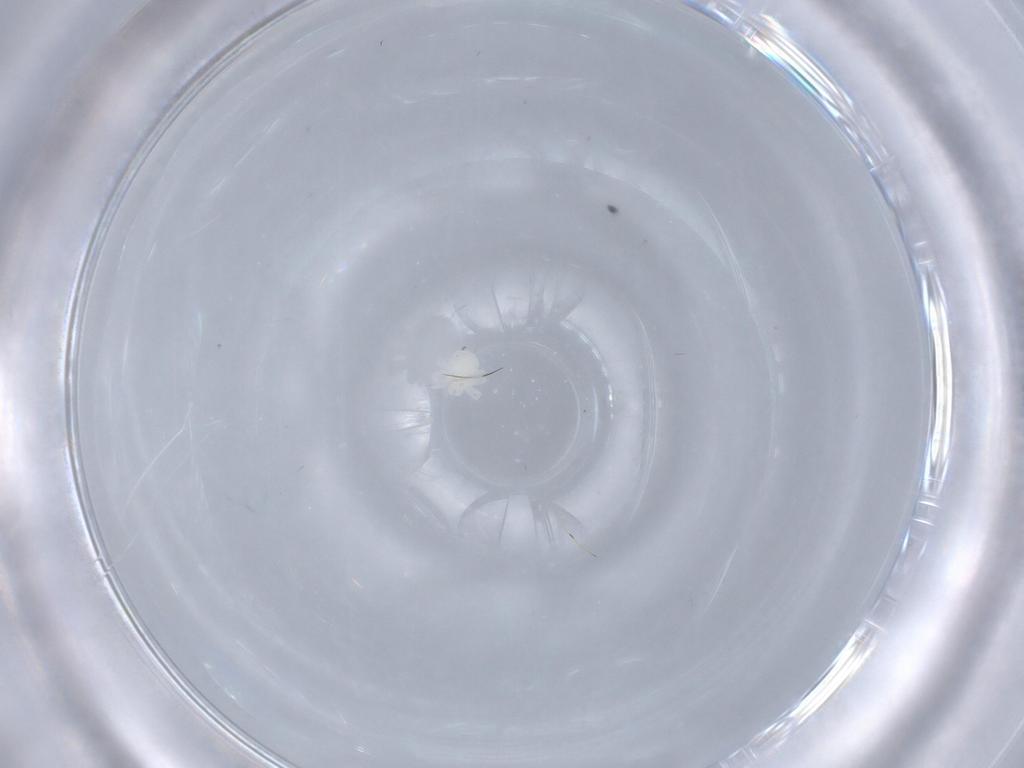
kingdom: Animalia
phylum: Arthropoda
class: Arachnida
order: Trombidiformes
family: Anystidae
